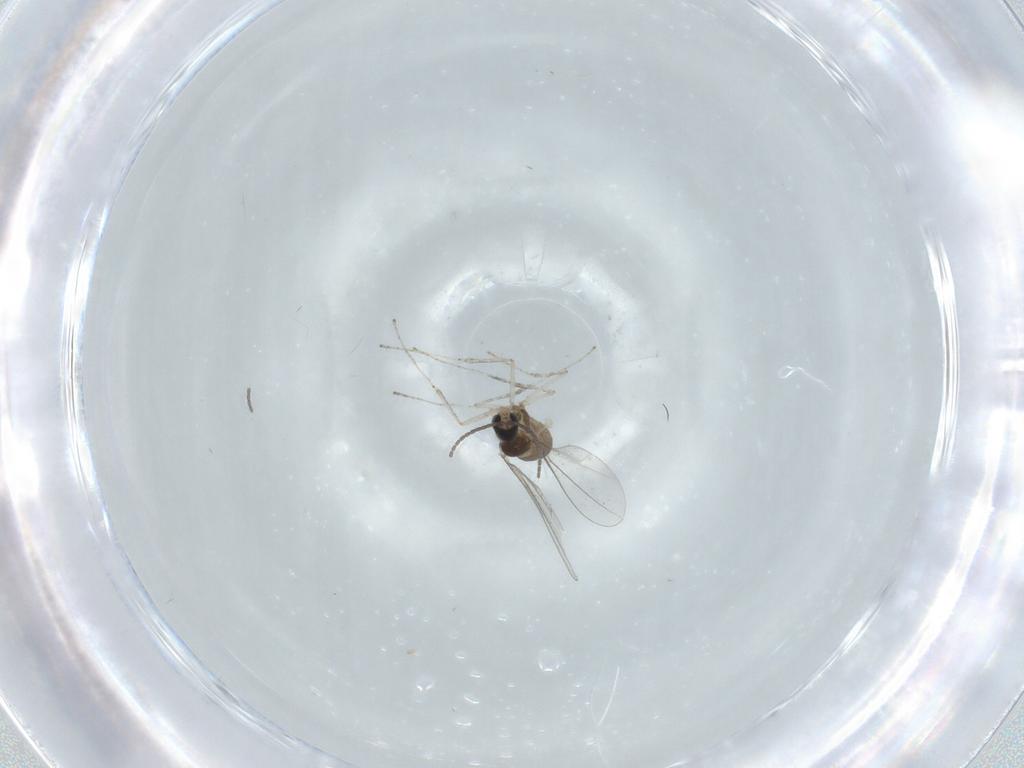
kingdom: Animalia
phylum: Arthropoda
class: Insecta
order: Diptera
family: Cecidomyiidae
